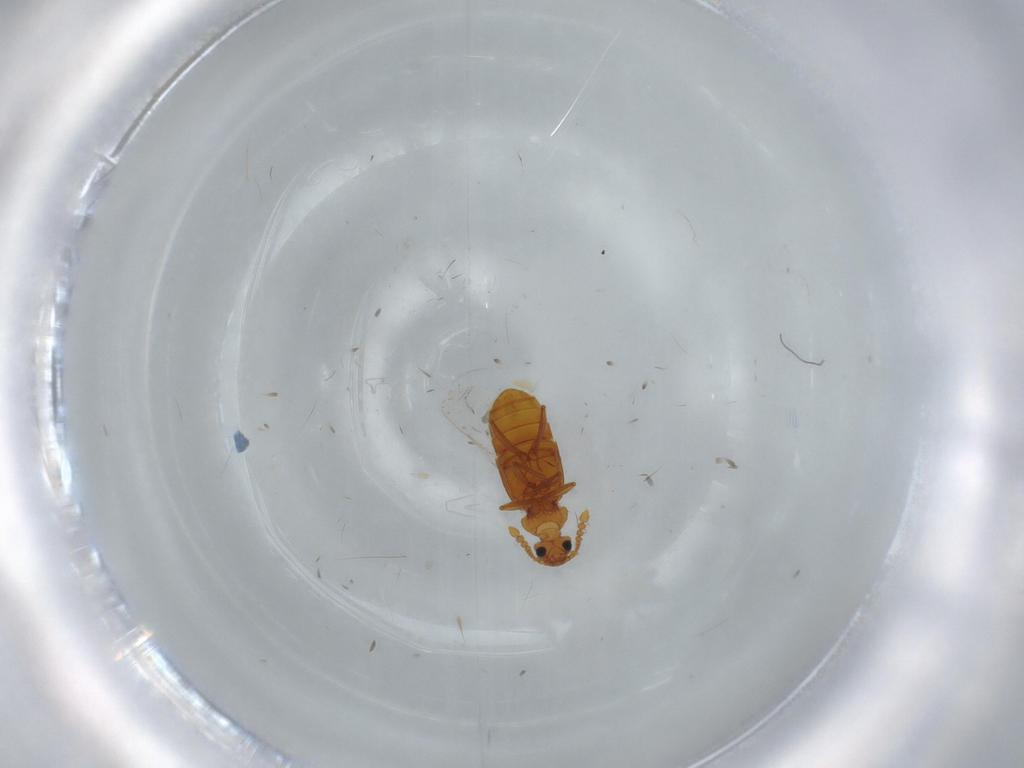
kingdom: Animalia
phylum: Arthropoda
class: Insecta
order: Coleoptera
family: Staphylinidae
